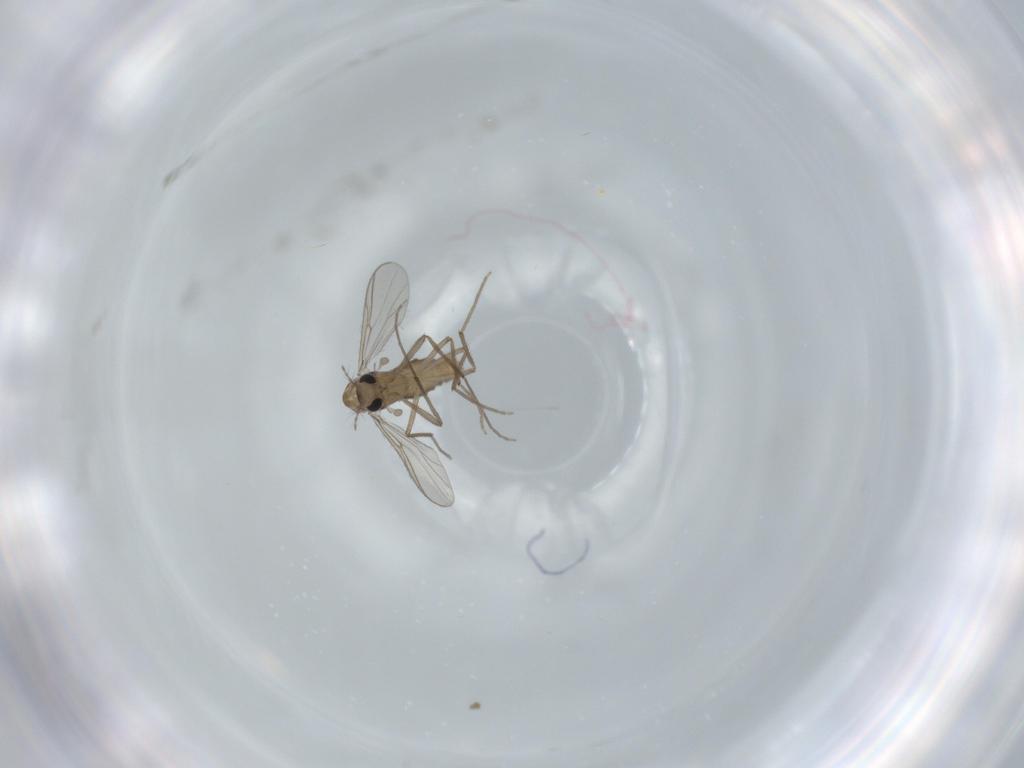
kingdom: Animalia
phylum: Arthropoda
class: Insecta
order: Diptera
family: Chironomidae
